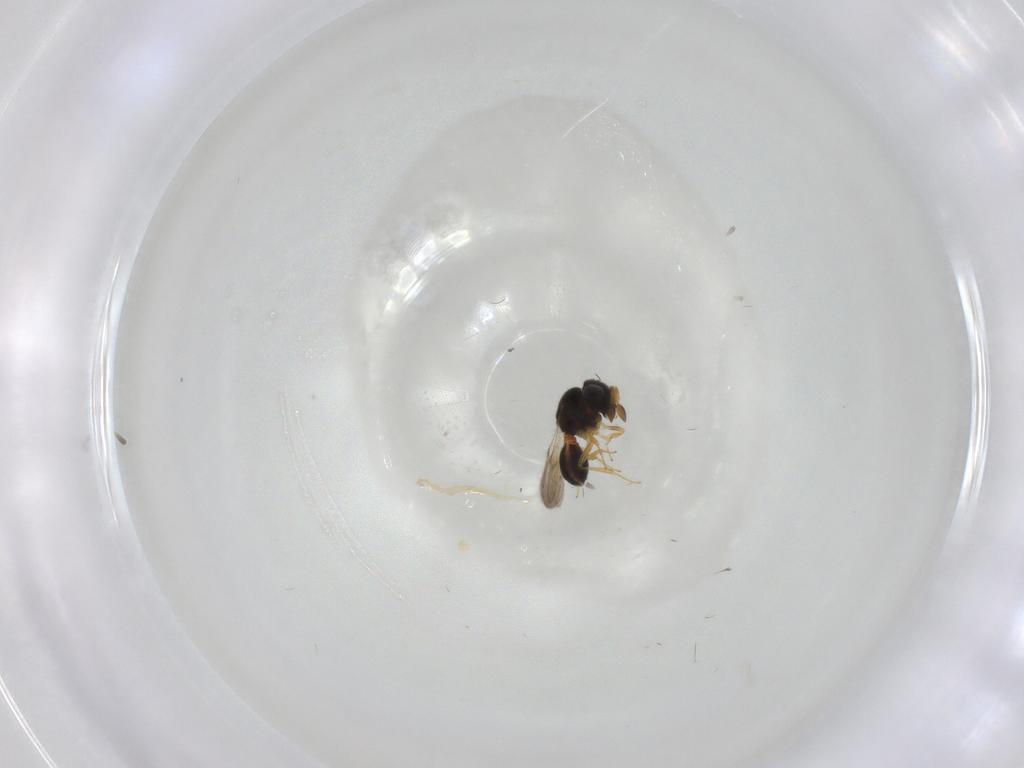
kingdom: Animalia
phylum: Arthropoda
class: Insecta
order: Hymenoptera
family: Scelionidae
